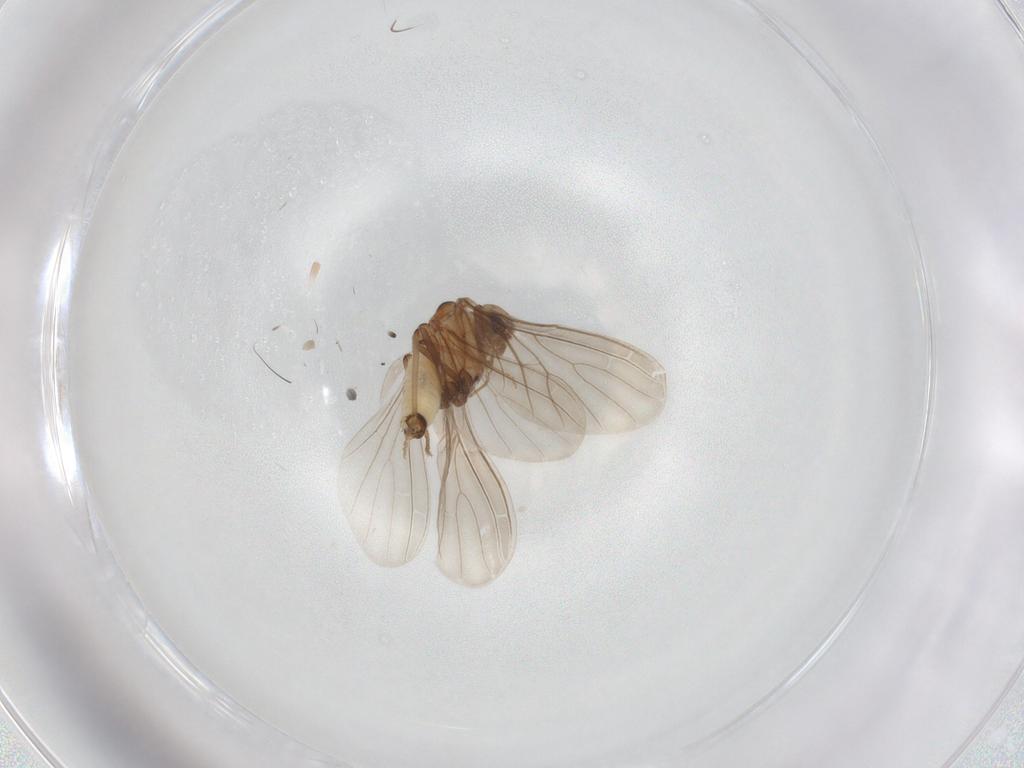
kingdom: Animalia
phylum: Arthropoda
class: Insecta
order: Neuroptera
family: Coniopterygidae
